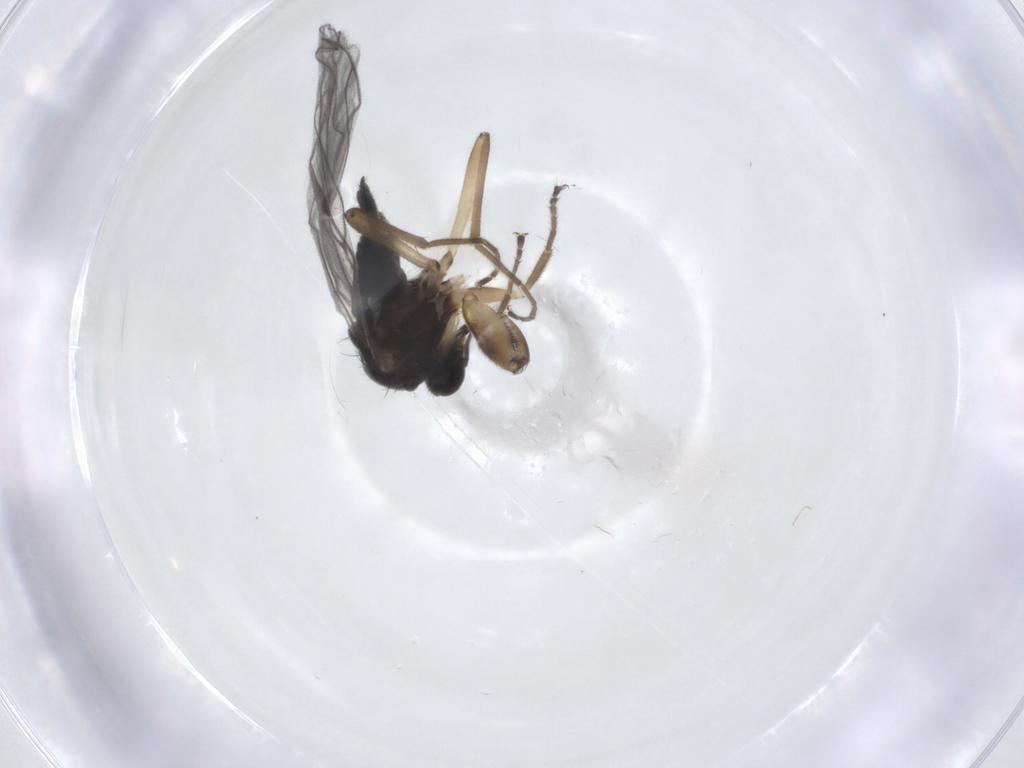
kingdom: Animalia
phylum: Arthropoda
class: Insecta
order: Diptera
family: Hybotidae
